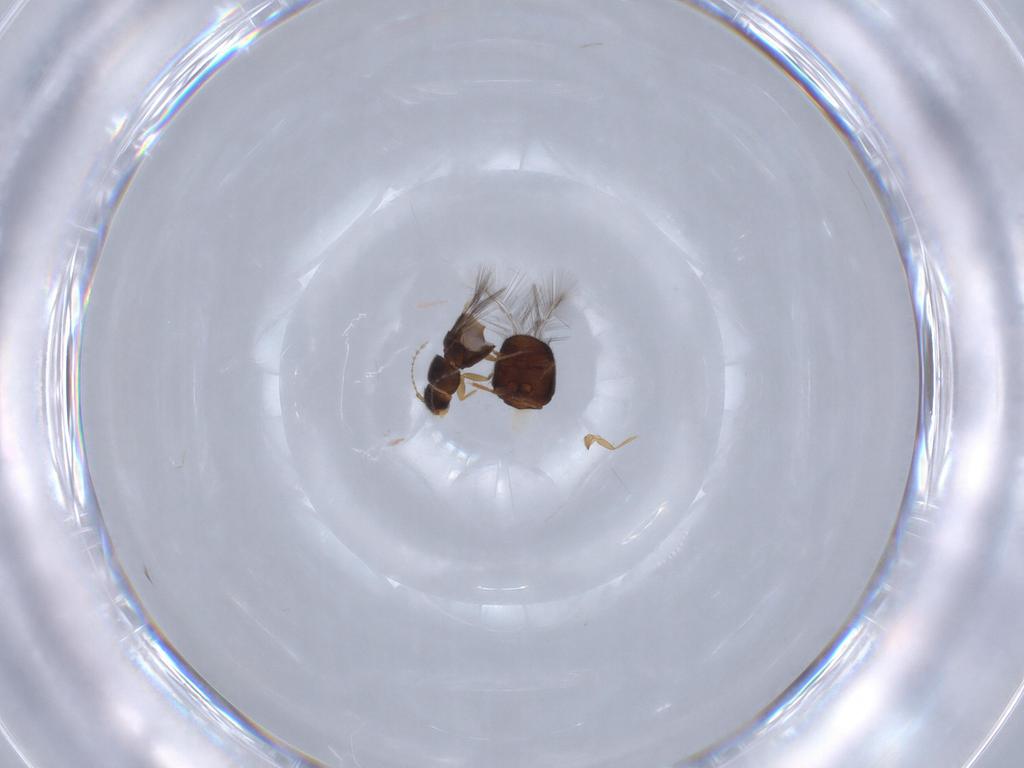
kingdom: Animalia
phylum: Arthropoda
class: Insecta
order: Coleoptera
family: Ptiliidae
